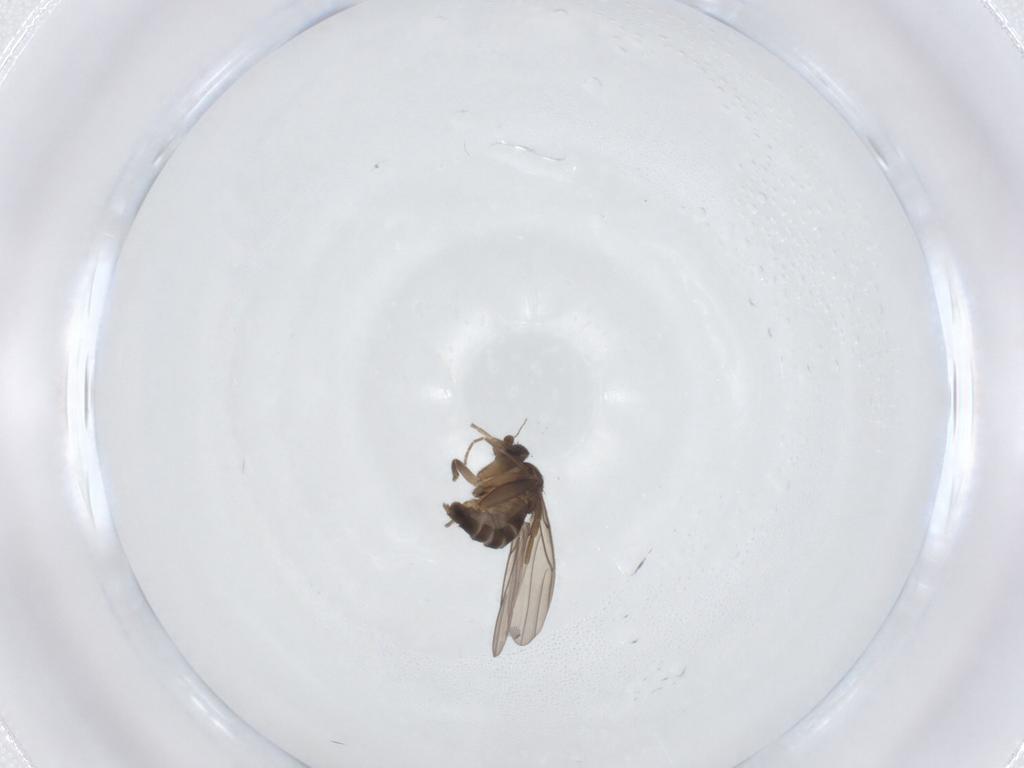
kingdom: Animalia
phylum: Arthropoda
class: Insecta
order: Diptera
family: Phoridae
